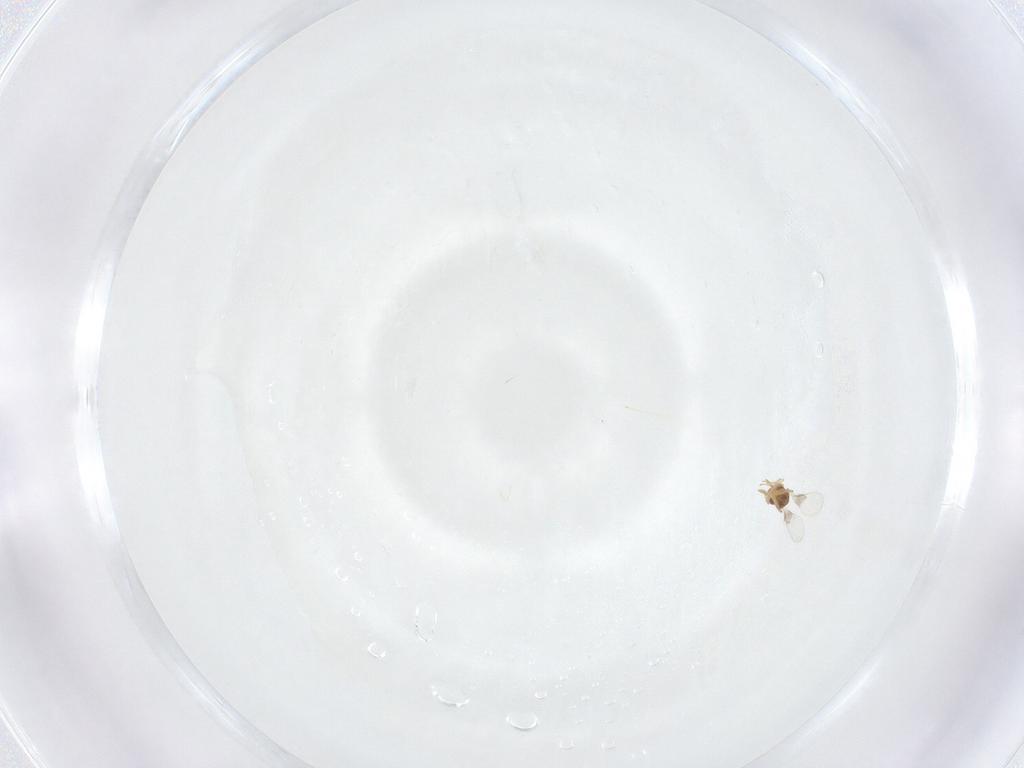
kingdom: Animalia
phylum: Arthropoda
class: Insecta
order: Hymenoptera
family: Trichogrammatidae
